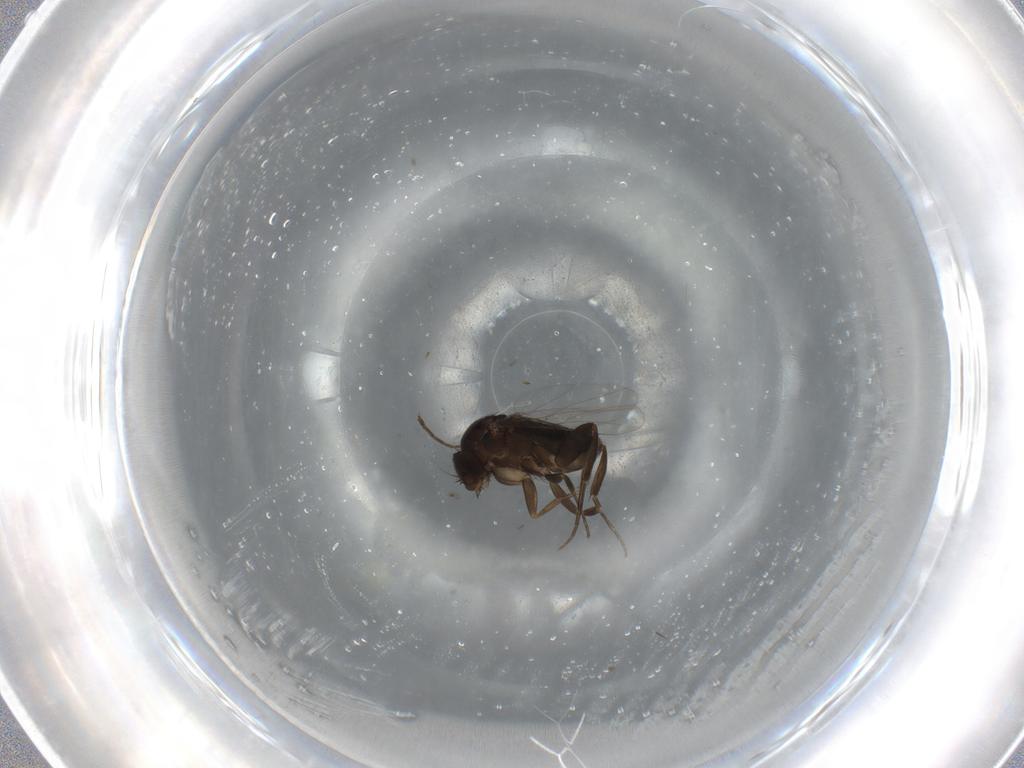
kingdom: Animalia
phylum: Arthropoda
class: Insecta
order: Diptera
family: Phoridae
